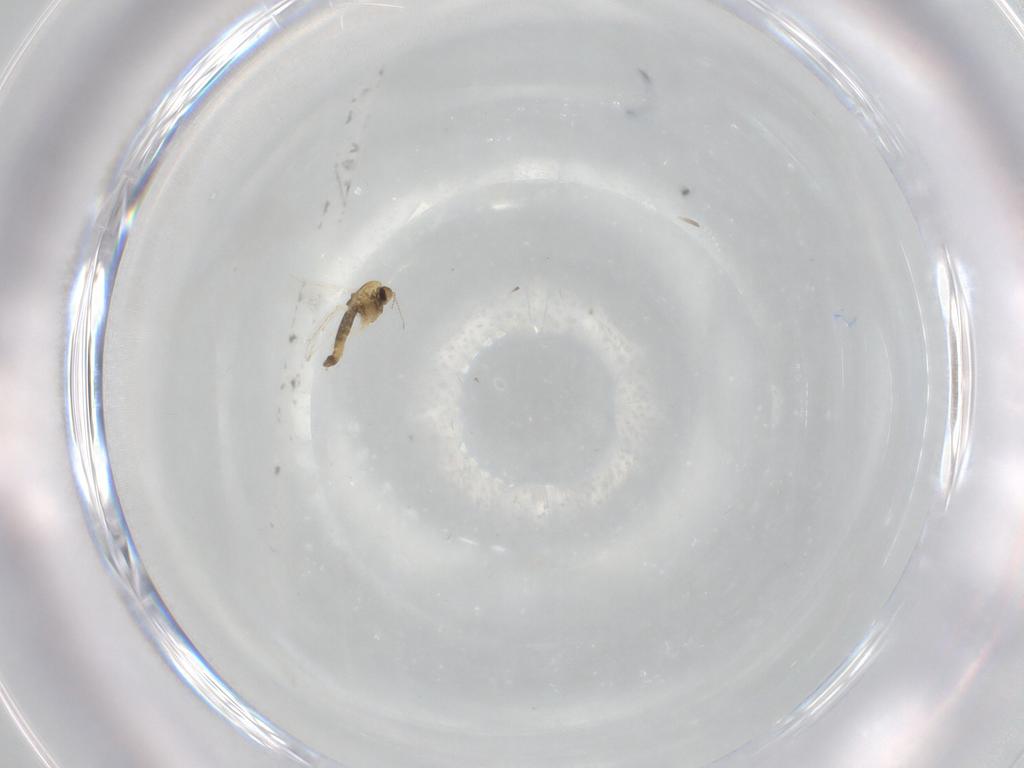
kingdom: Animalia
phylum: Arthropoda
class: Insecta
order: Diptera
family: Chironomidae
